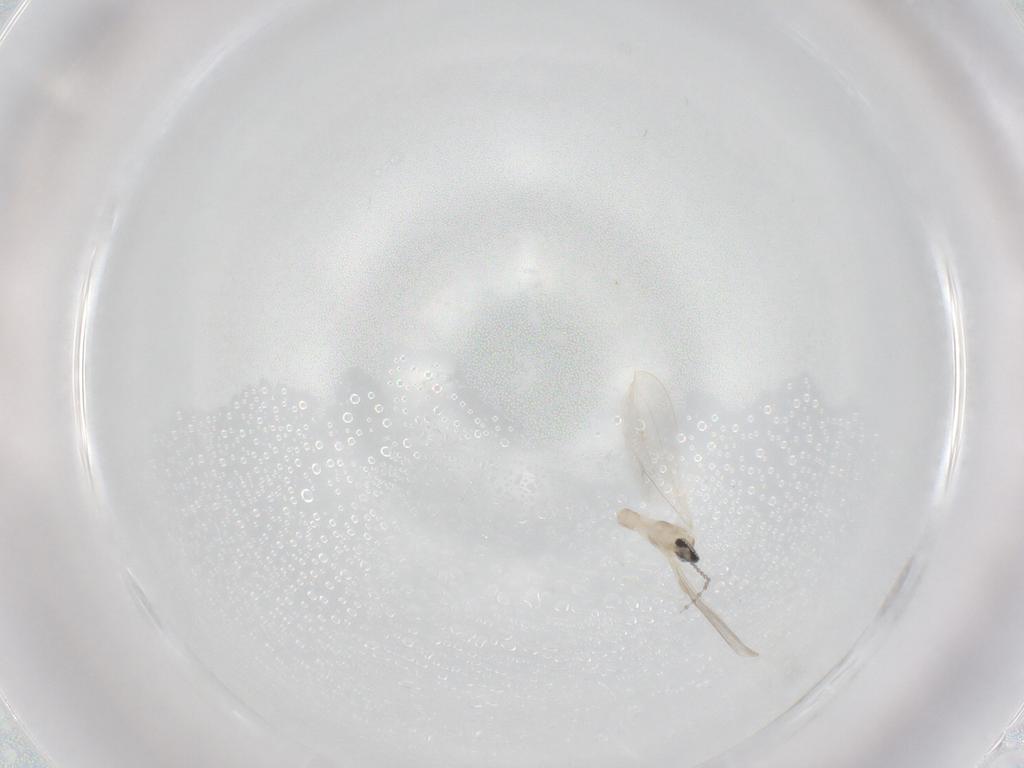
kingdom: Animalia
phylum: Arthropoda
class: Insecta
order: Diptera
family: Cecidomyiidae
